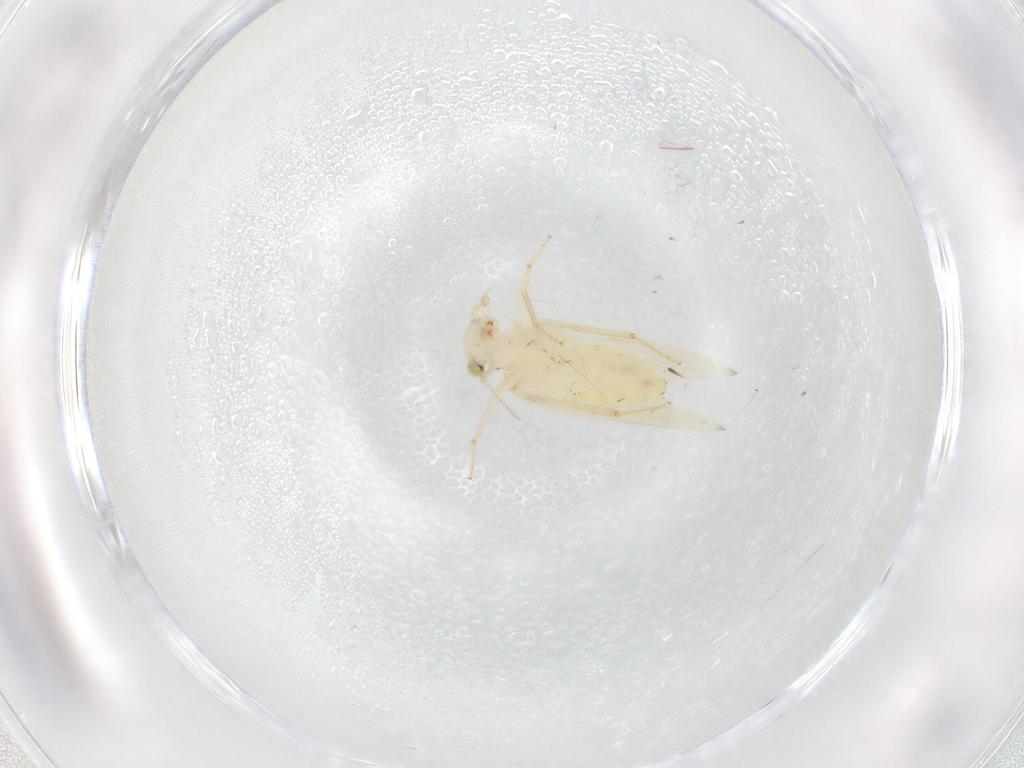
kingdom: Animalia
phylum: Arthropoda
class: Insecta
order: Psocodea
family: Lepidopsocidae
